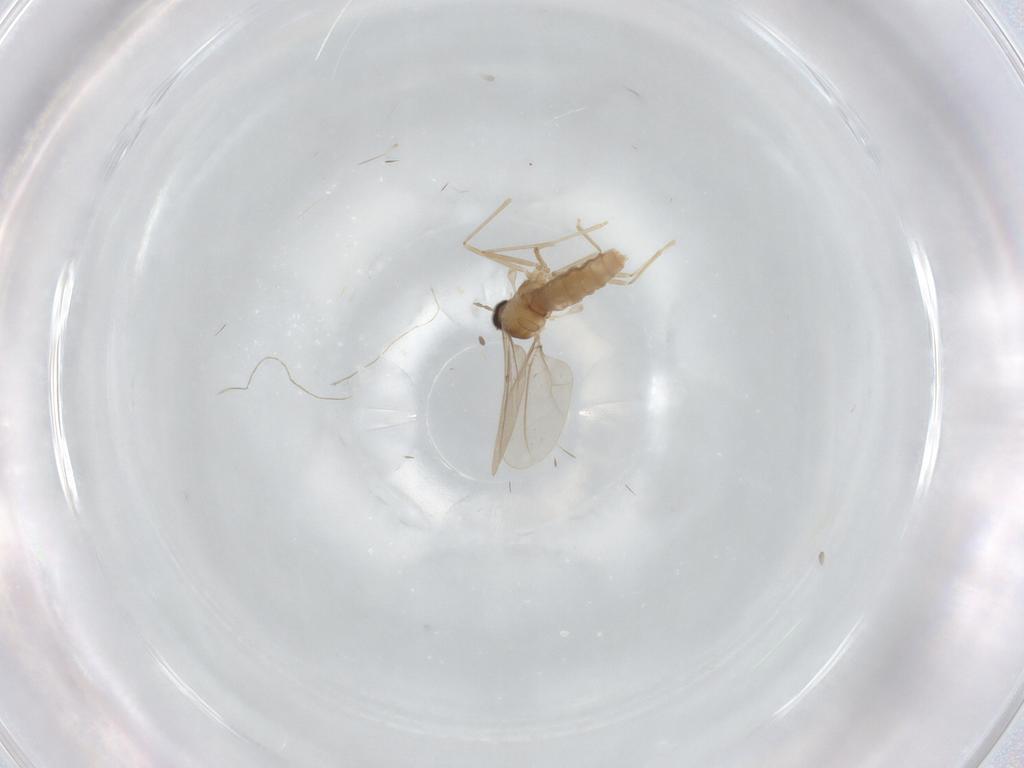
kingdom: Animalia
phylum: Arthropoda
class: Insecta
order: Diptera
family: Cecidomyiidae
